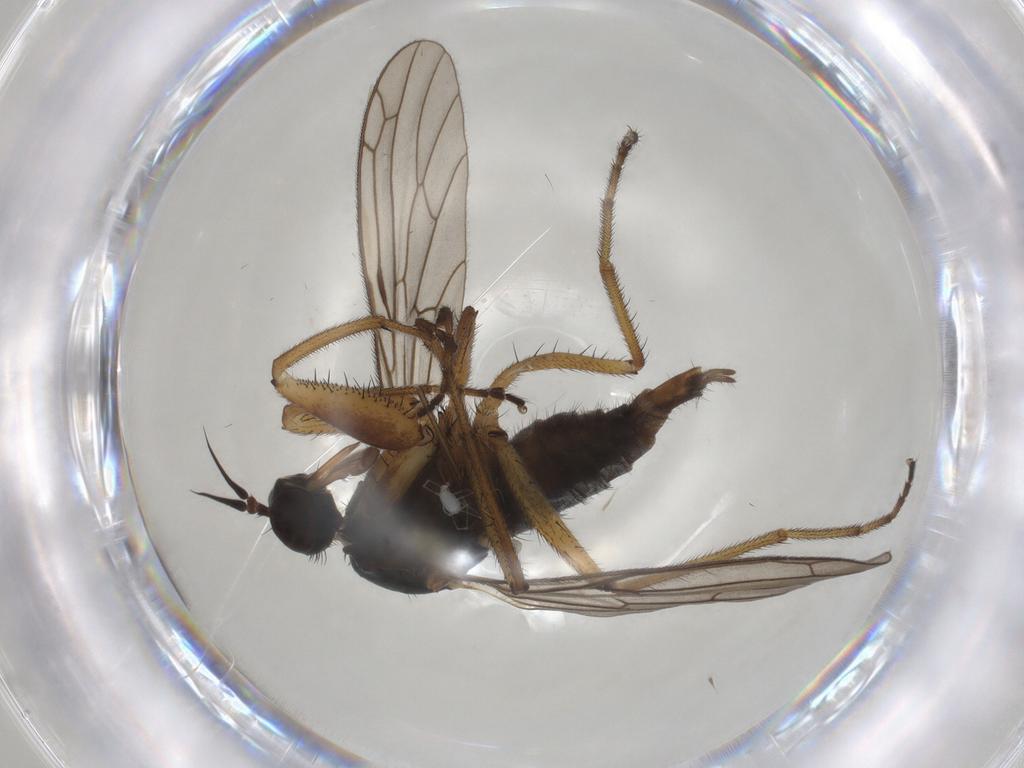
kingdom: Animalia
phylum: Arthropoda
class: Insecta
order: Diptera
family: Empididae
